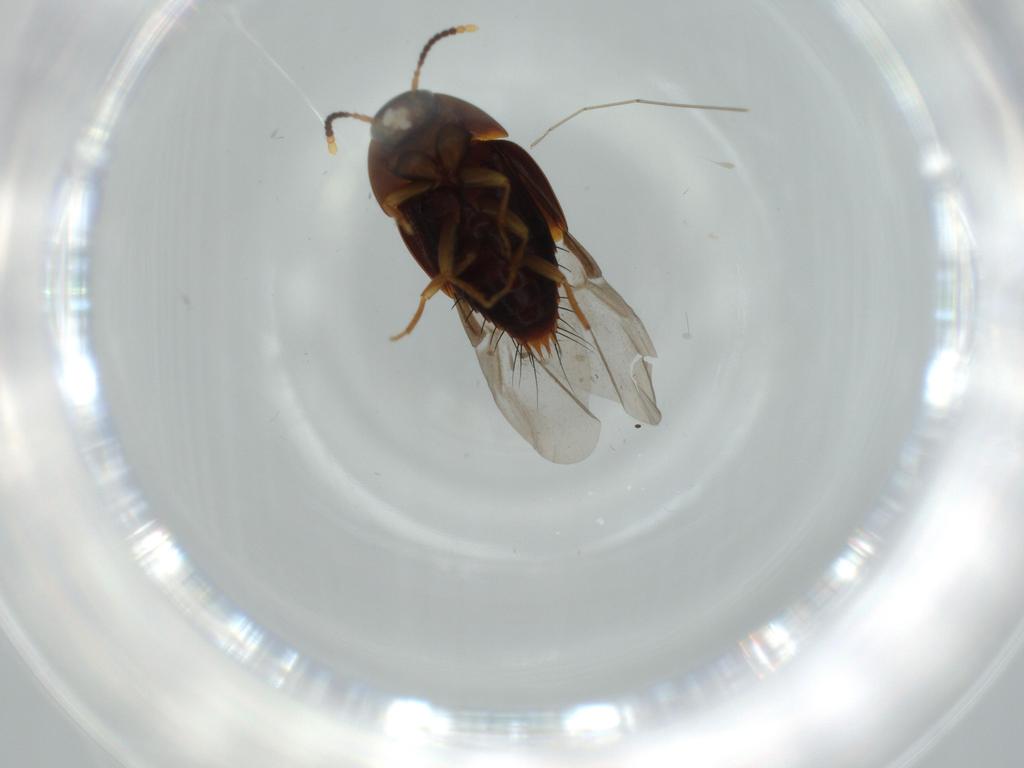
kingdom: Animalia
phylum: Arthropoda
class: Insecta
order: Coleoptera
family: Staphylinidae
